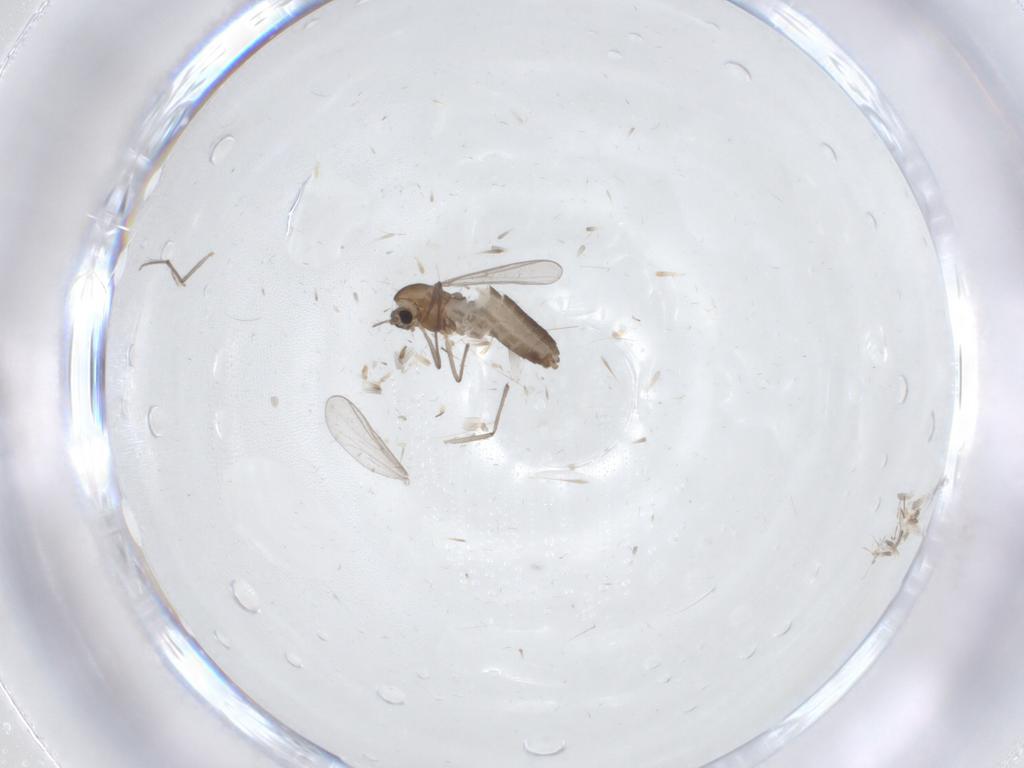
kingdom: Animalia
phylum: Arthropoda
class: Insecta
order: Diptera
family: Chironomidae
